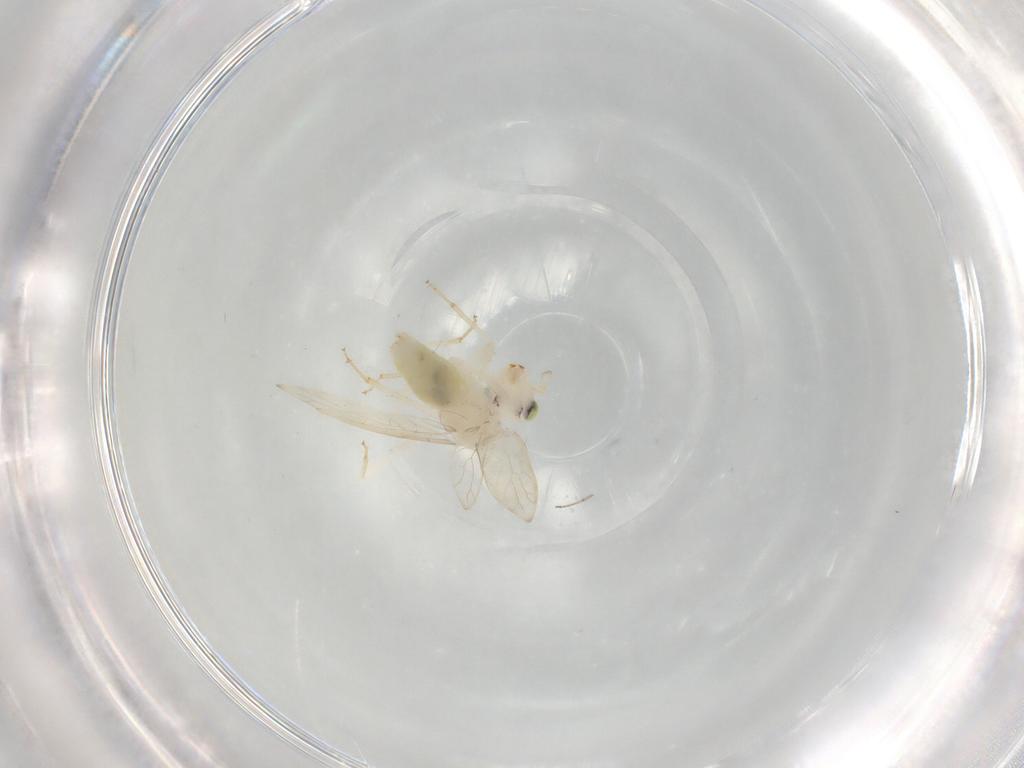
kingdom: Animalia
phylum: Arthropoda
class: Insecta
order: Psocodea
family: Lepidopsocidae
